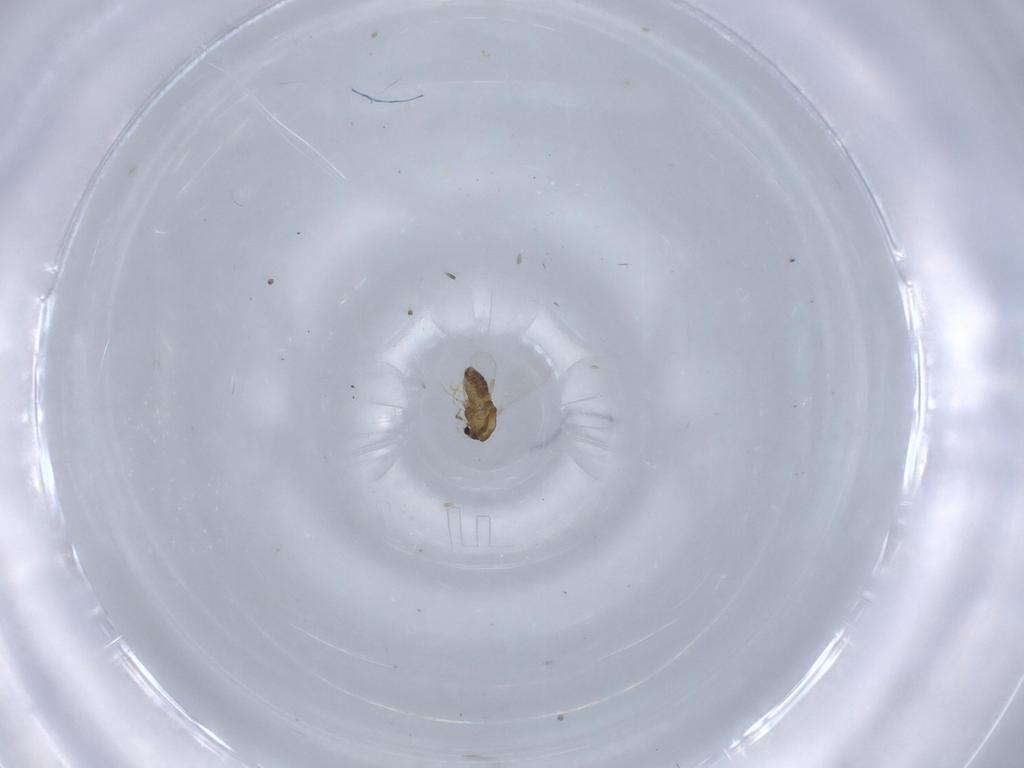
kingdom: Animalia
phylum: Arthropoda
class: Insecta
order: Diptera
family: Chironomidae
